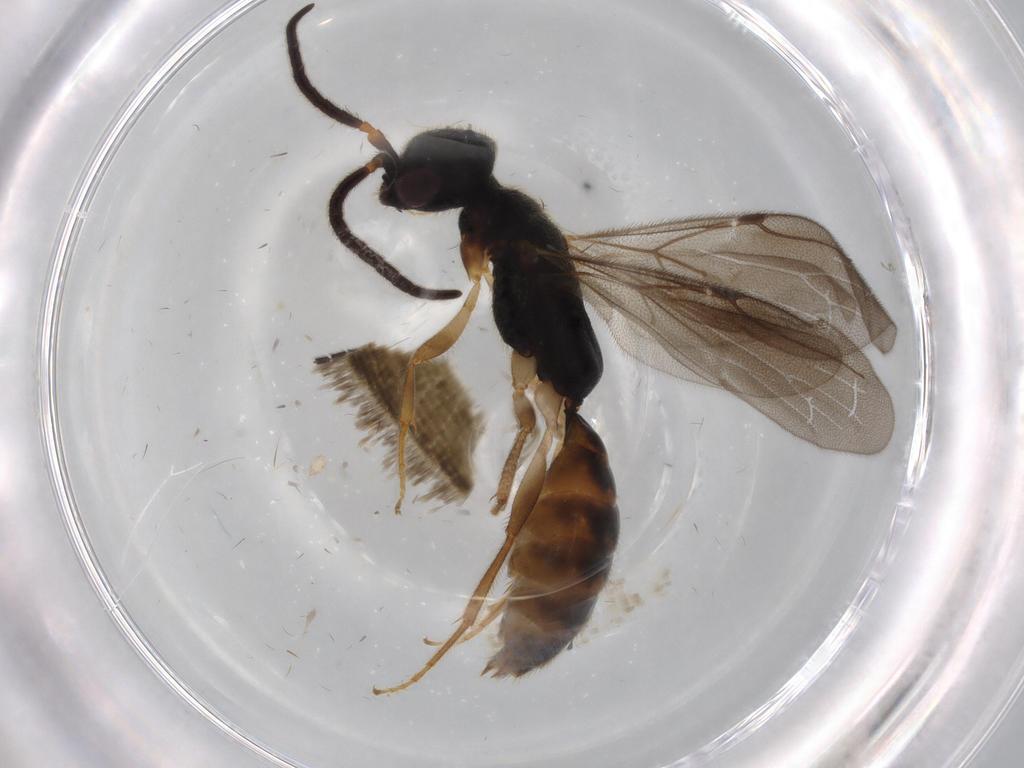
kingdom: Animalia
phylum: Arthropoda
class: Insecta
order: Hymenoptera
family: Bethylidae
